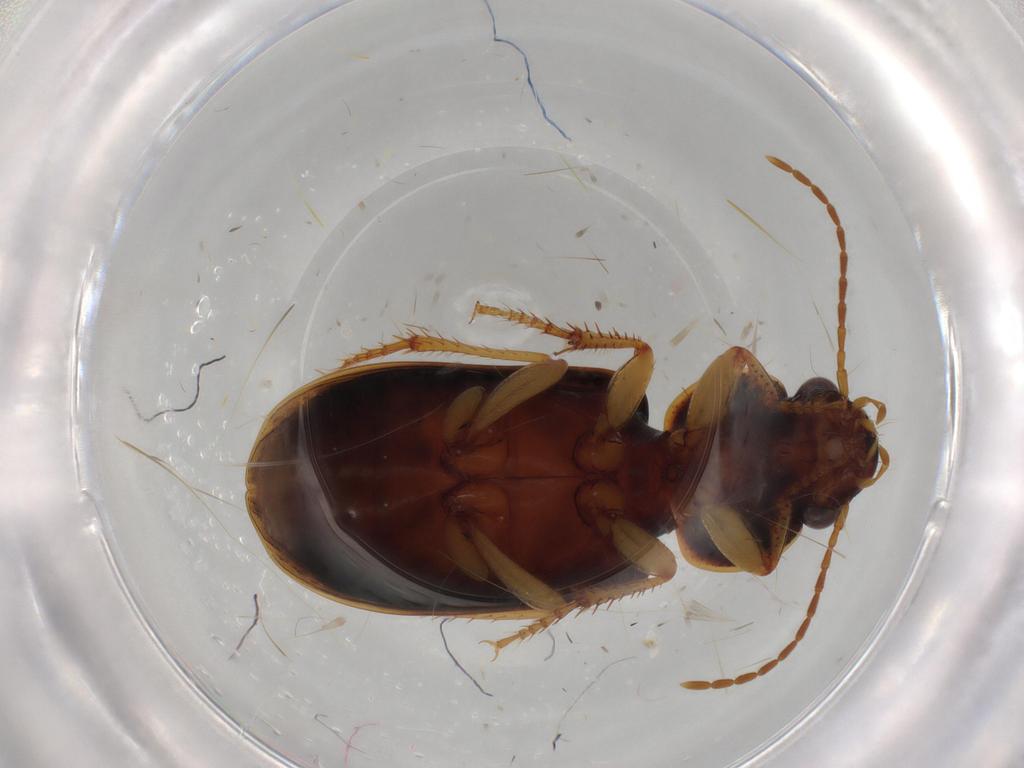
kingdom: Animalia
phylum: Arthropoda
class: Insecta
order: Coleoptera
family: Carabidae
